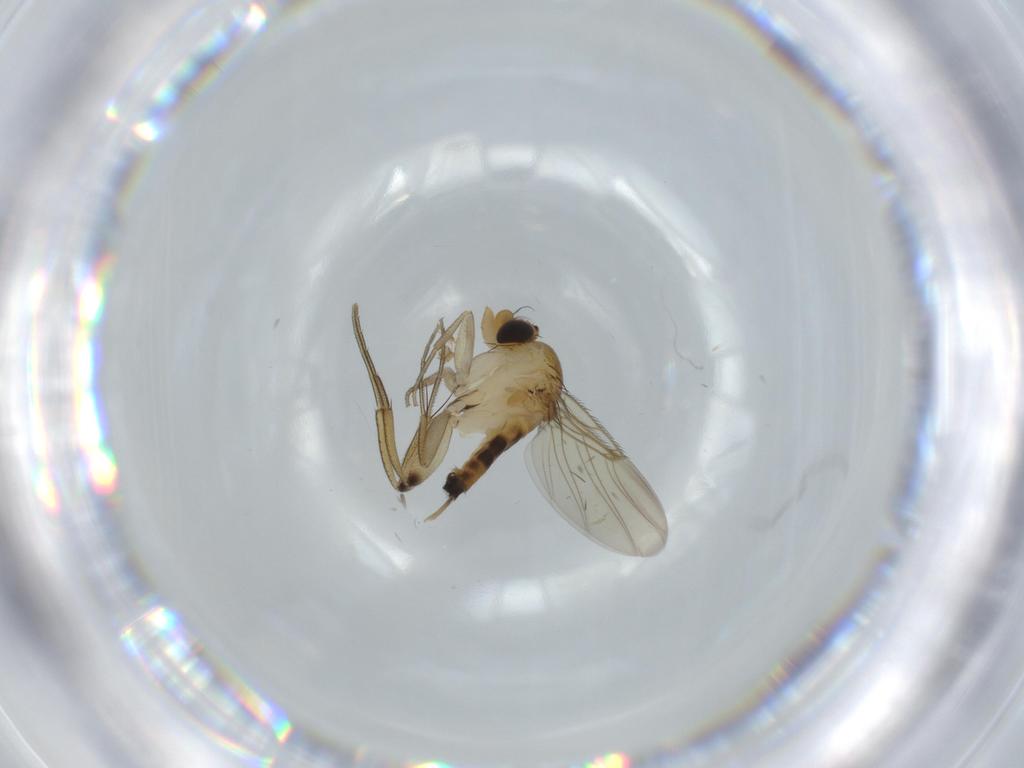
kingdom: Animalia
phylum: Arthropoda
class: Insecta
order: Diptera
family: Phoridae
